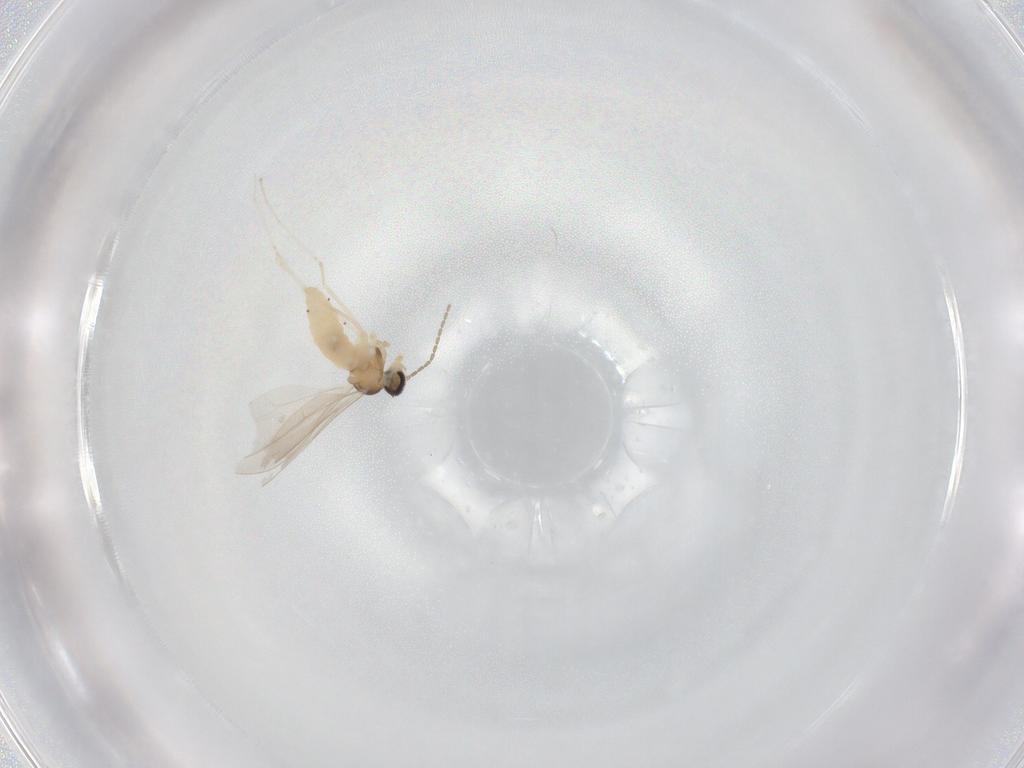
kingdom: Animalia
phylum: Arthropoda
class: Insecta
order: Diptera
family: Cecidomyiidae
